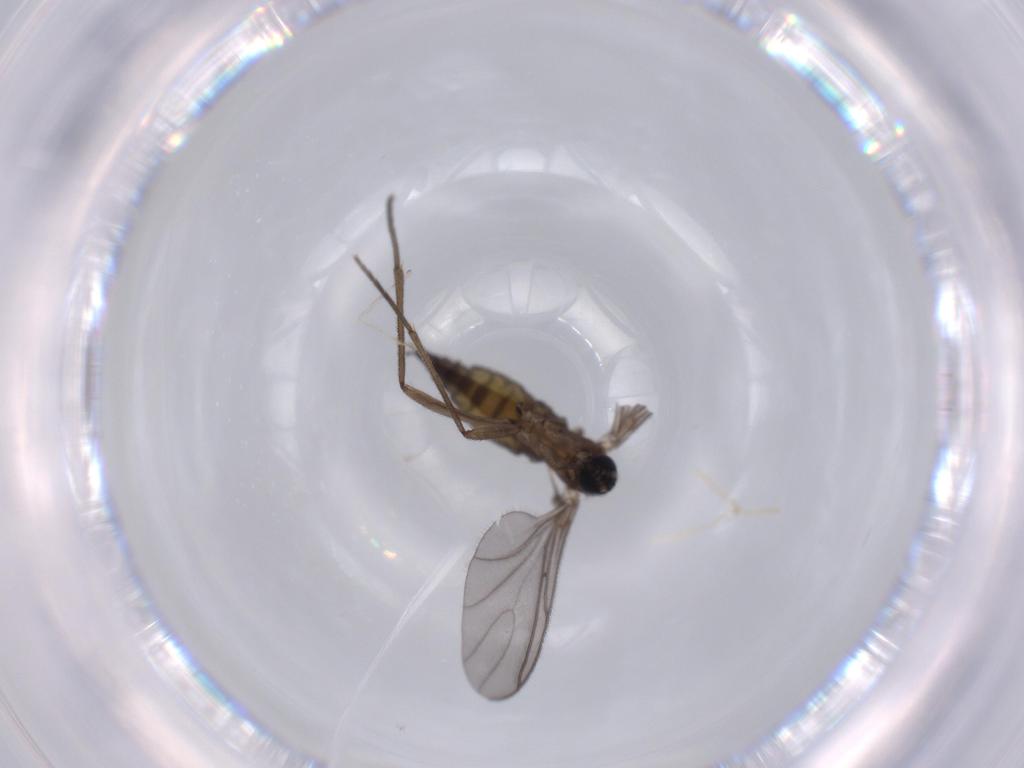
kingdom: Animalia
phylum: Arthropoda
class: Insecta
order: Diptera
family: Sciaridae
